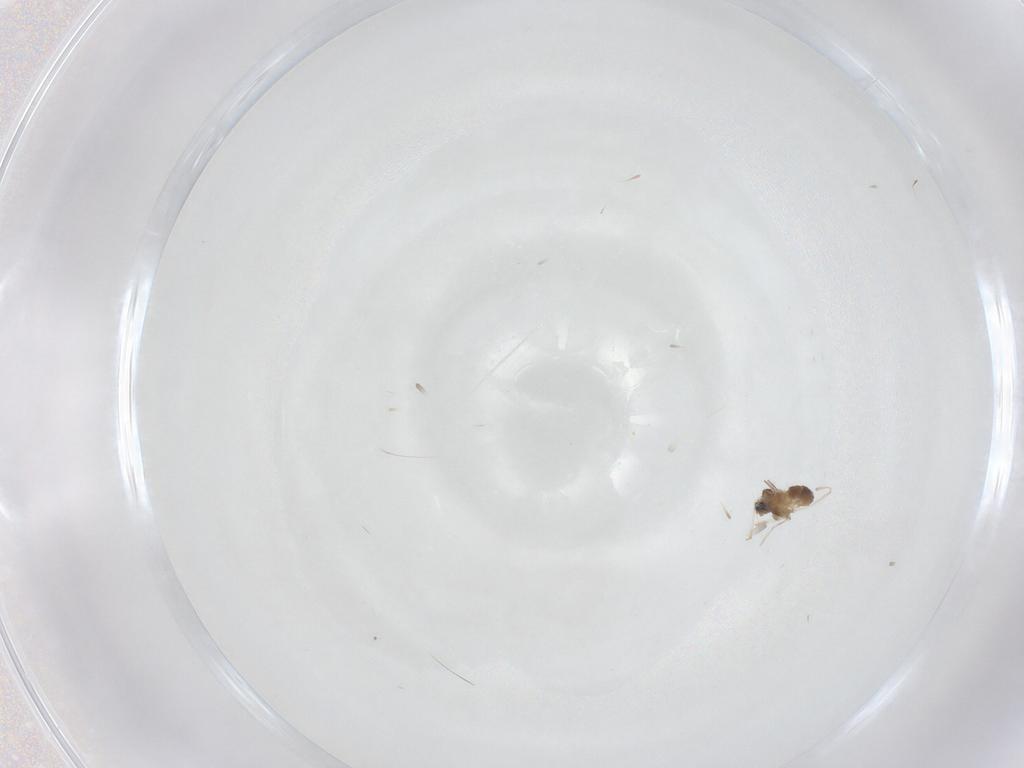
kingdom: Animalia
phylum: Arthropoda
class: Insecta
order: Diptera
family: Cecidomyiidae
